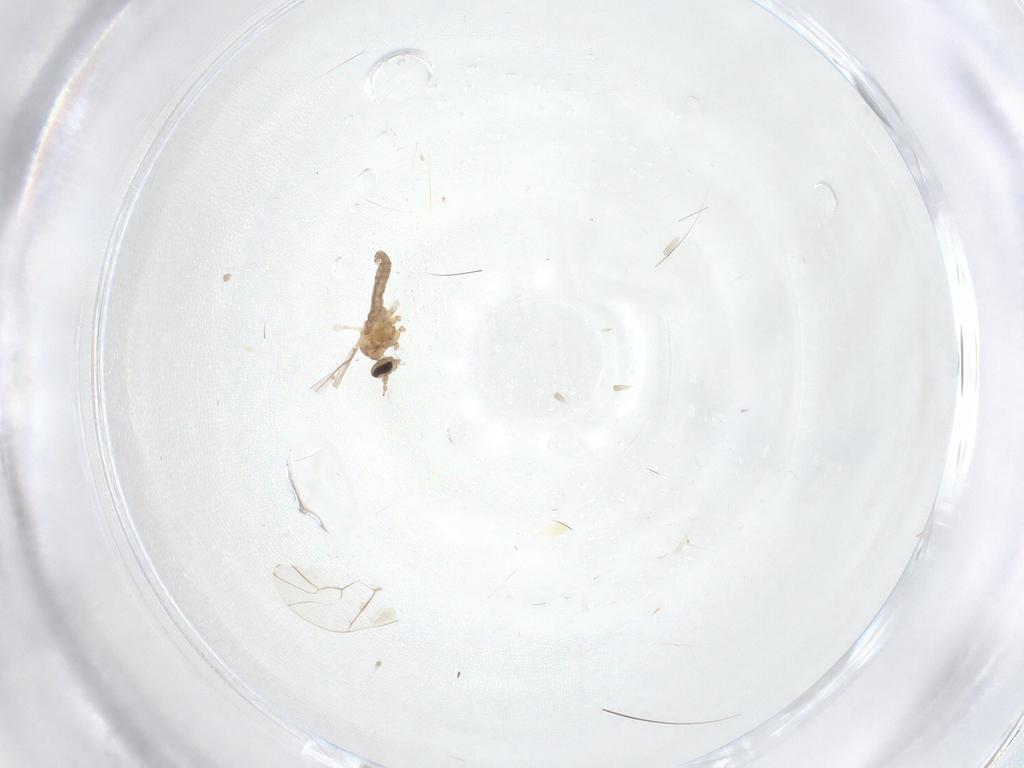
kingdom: Animalia
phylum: Arthropoda
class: Insecta
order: Diptera
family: Cecidomyiidae
